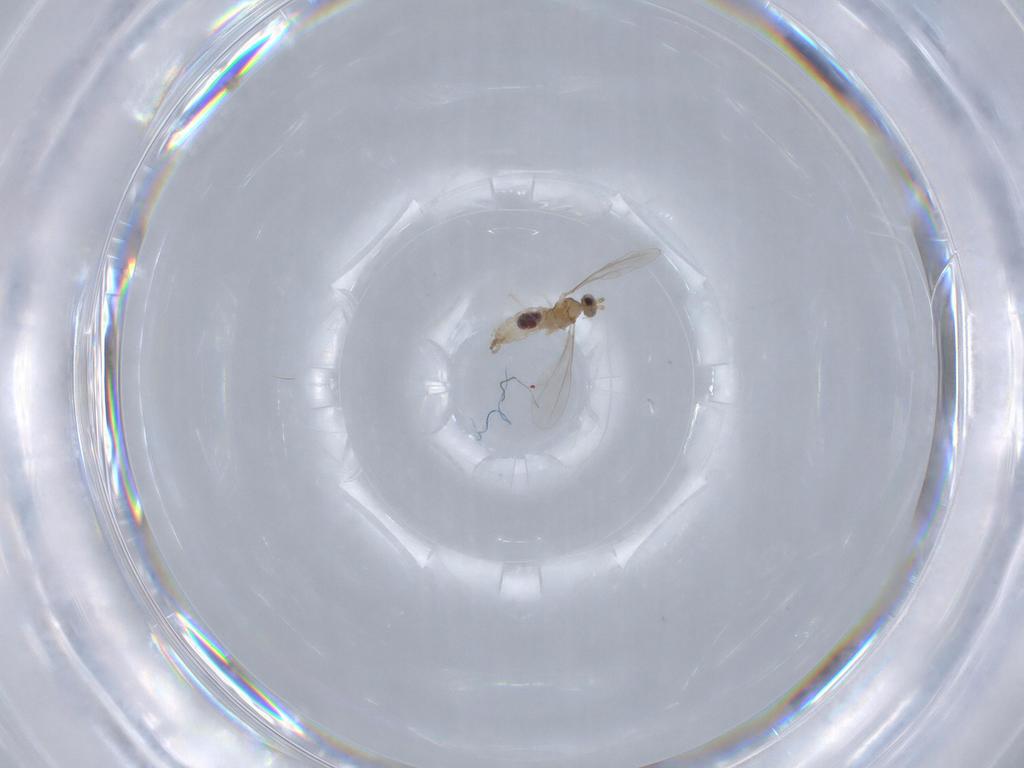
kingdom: Animalia
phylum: Arthropoda
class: Insecta
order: Diptera
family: Cecidomyiidae
